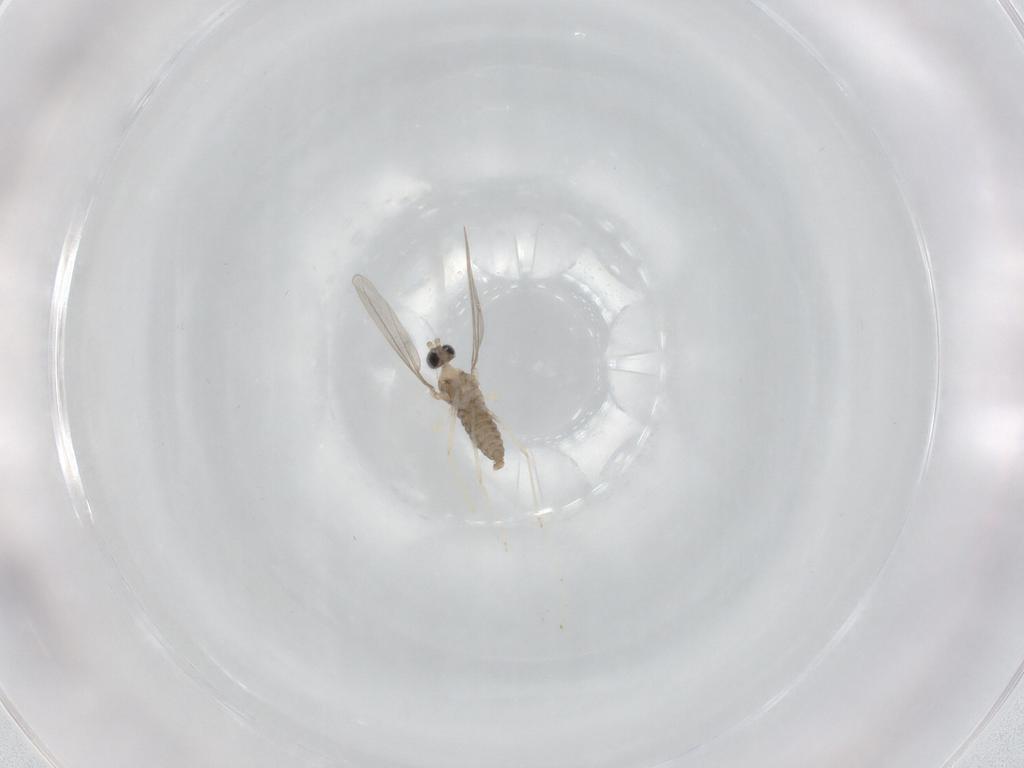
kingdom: Animalia
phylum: Arthropoda
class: Insecta
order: Diptera
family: Cecidomyiidae
